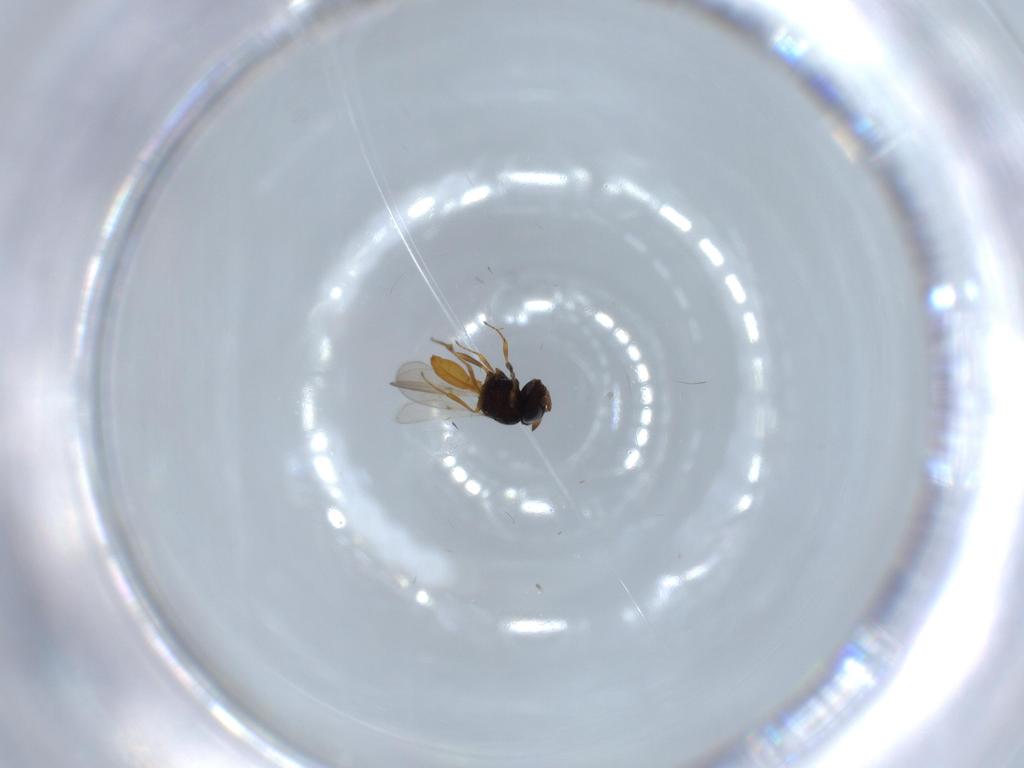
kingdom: Animalia
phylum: Arthropoda
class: Insecta
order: Hymenoptera
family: Scelionidae
